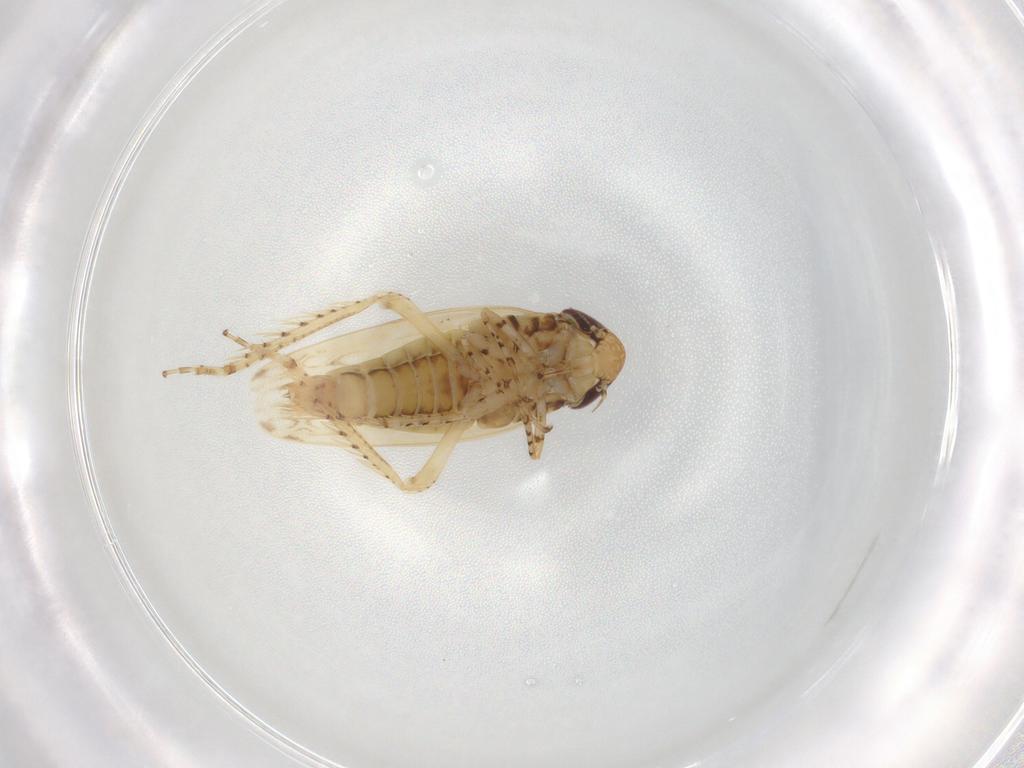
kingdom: Animalia
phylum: Arthropoda
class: Insecta
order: Hemiptera
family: Cicadellidae
